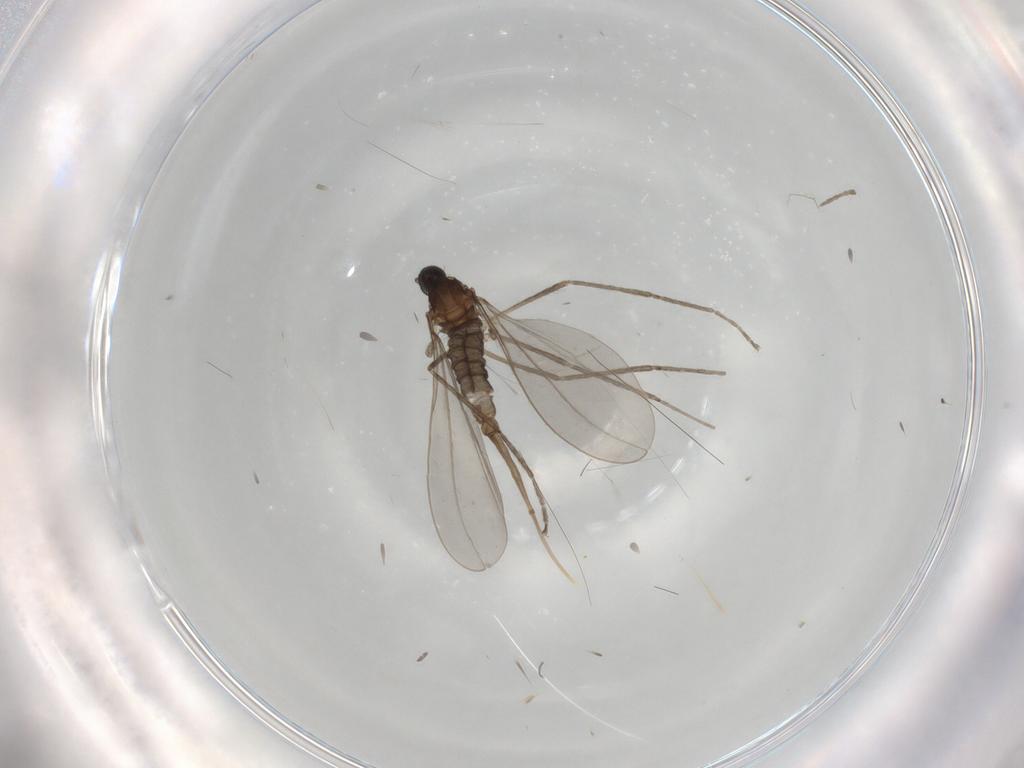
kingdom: Animalia
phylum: Arthropoda
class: Insecta
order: Diptera
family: Cecidomyiidae
